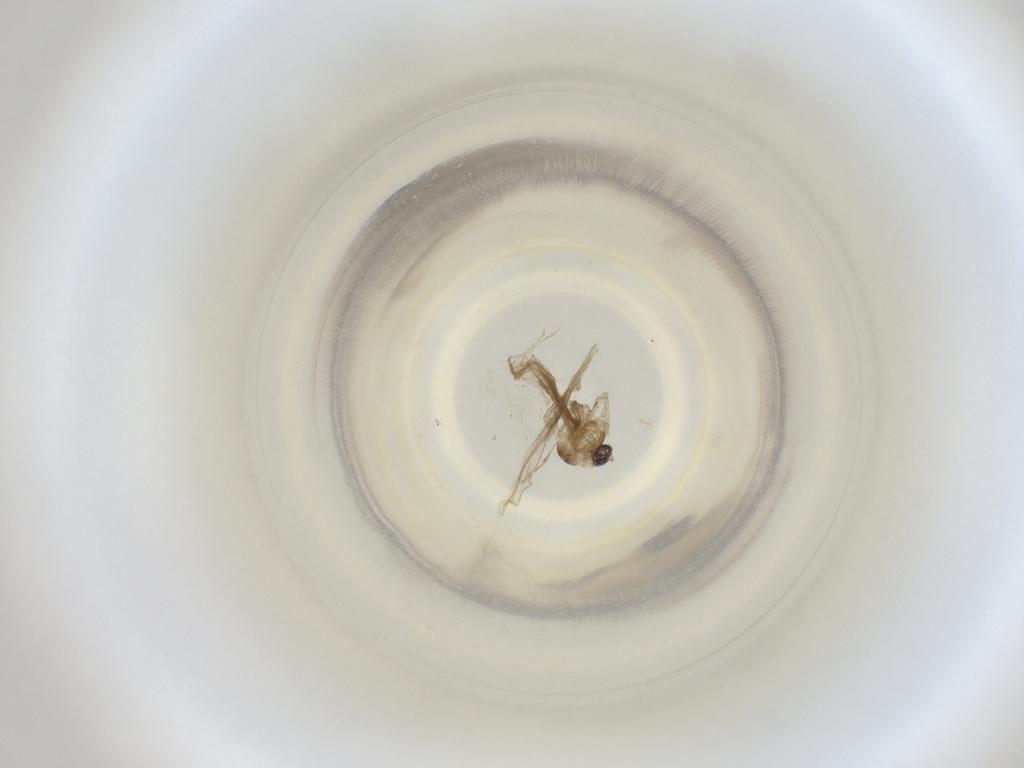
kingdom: Animalia
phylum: Arthropoda
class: Insecta
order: Diptera
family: Cecidomyiidae
